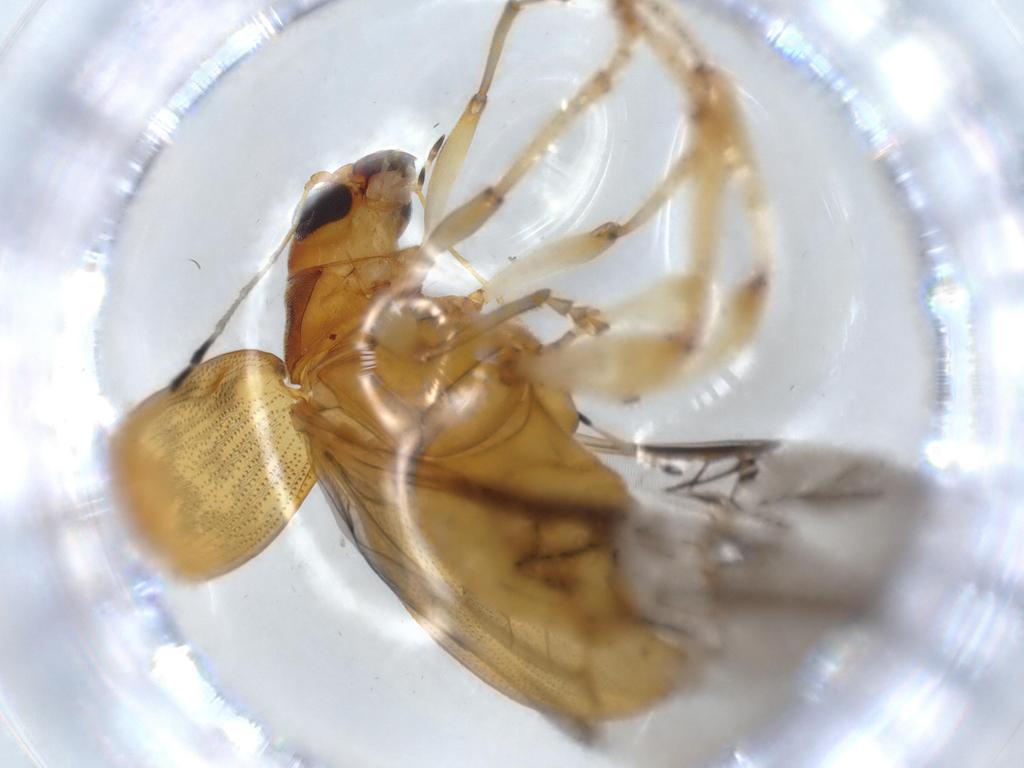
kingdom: Animalia
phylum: Arthropoda
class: Insecta
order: Coleoptera
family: Chrysomelidae
